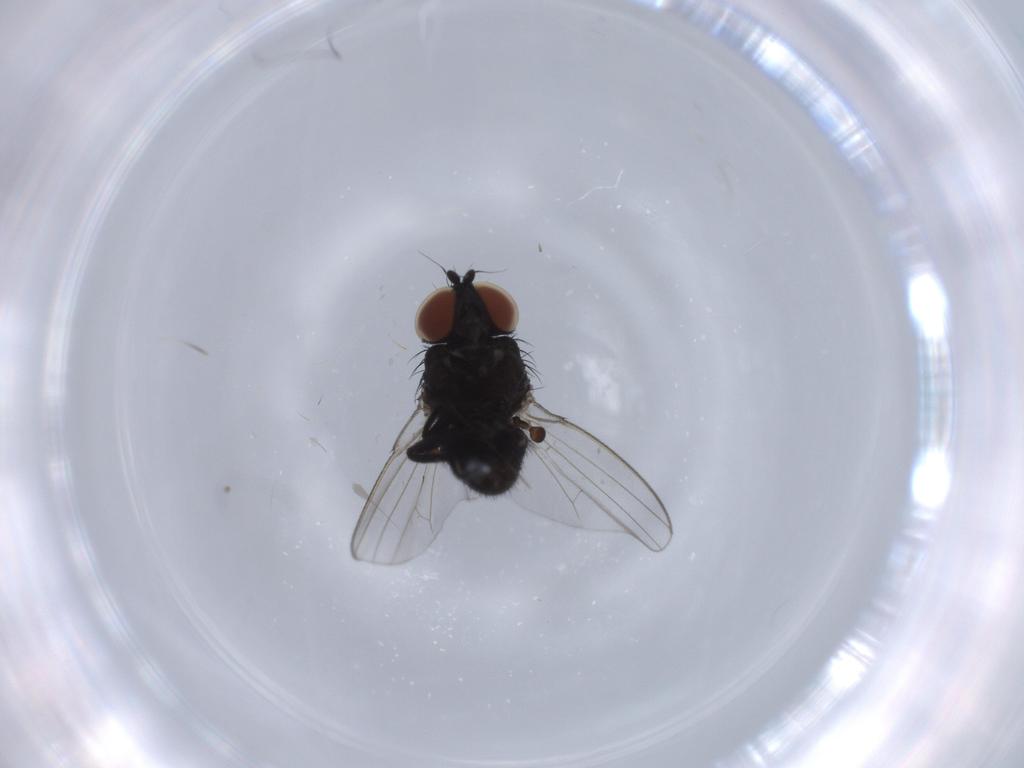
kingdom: Animalia
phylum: Arthropoda
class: Insecta
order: Diptera
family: Milichiidae
